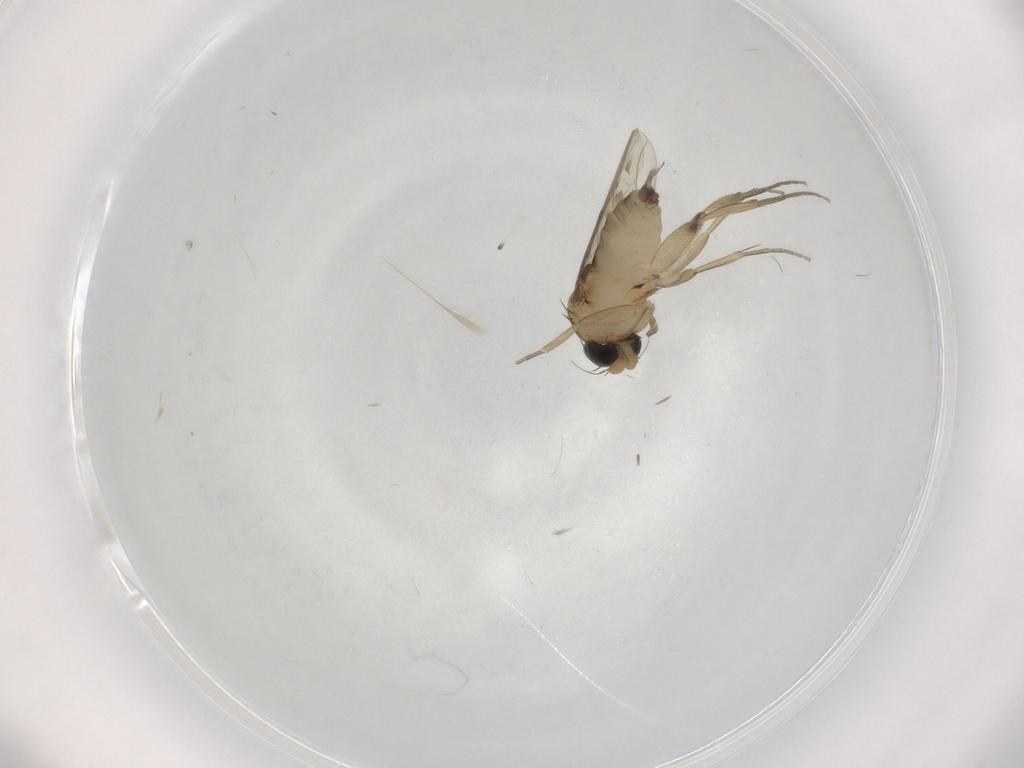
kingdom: Animalia
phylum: Arthropoda
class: Insecta
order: Diptera
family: Phoridae
